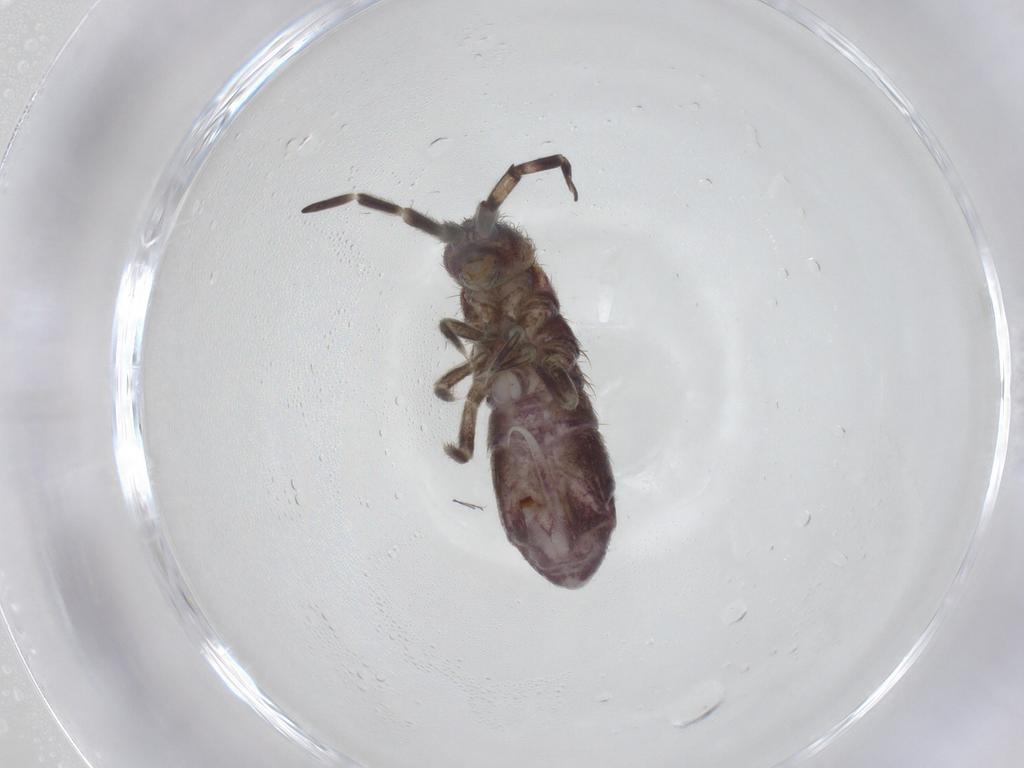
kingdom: Animalia
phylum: Arthropoda
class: Collembola
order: Entomobryomorpha
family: Isotomidae
